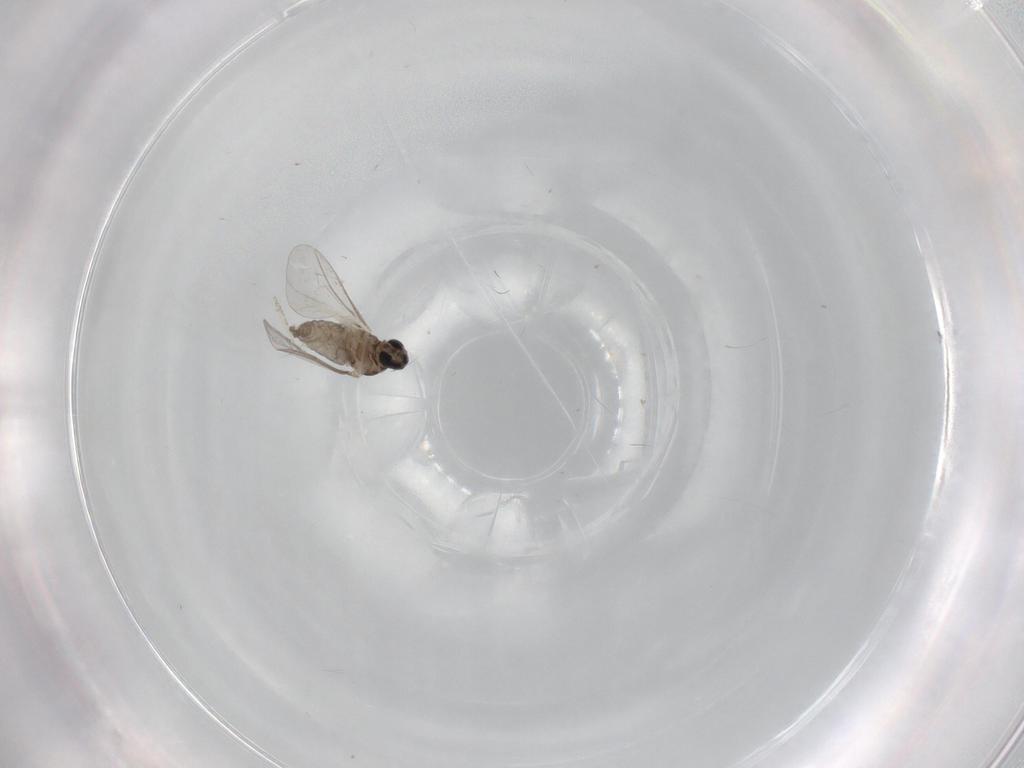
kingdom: Animalia
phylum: Arthropoda
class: Insecta
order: Diptera
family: Cecidomyiidae
